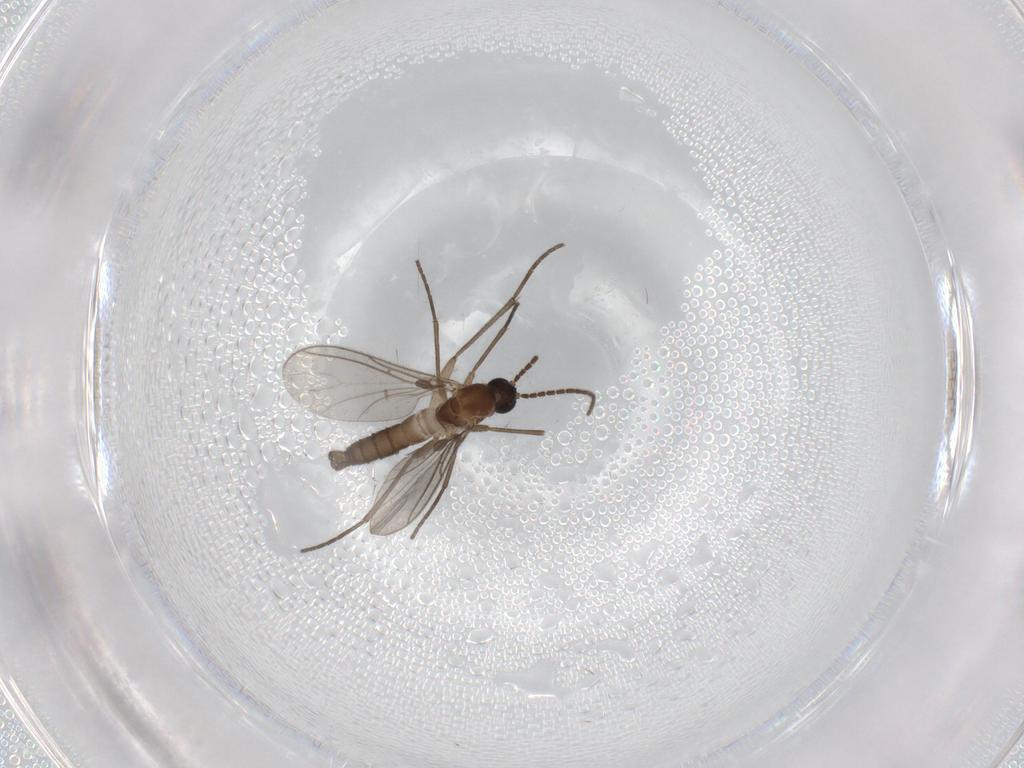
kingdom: Animalia
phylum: Arthropoda
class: Insecta
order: Diptera
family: Sciaridae
